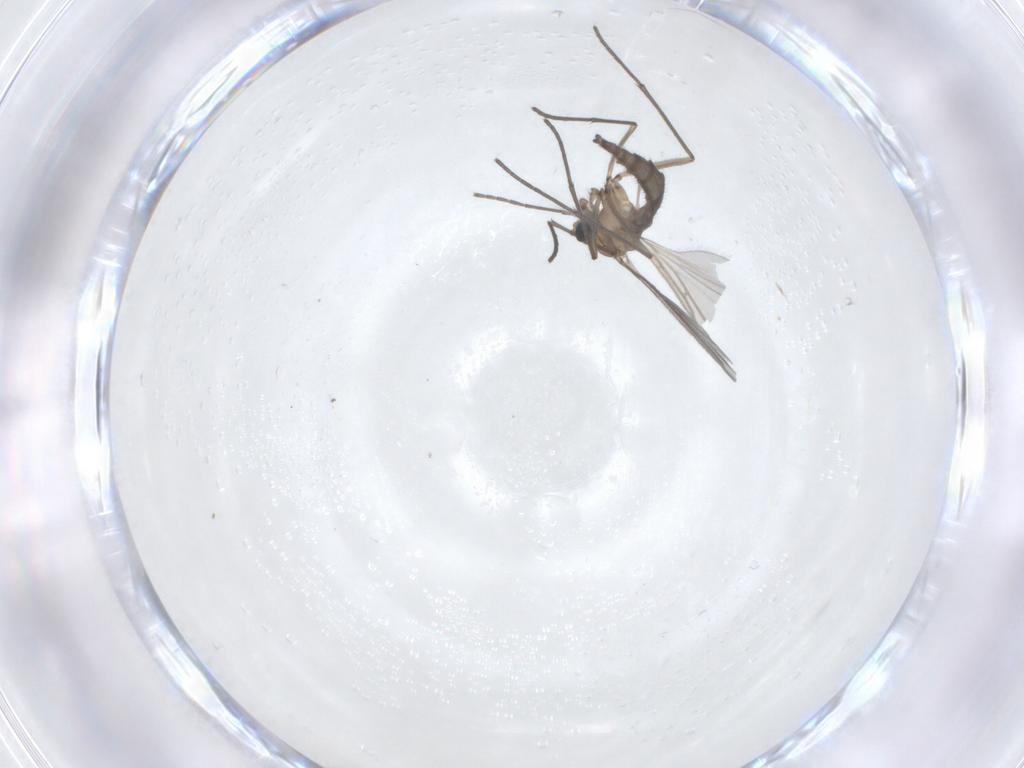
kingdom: Animalia
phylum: Arthropoda
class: Insecta
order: Diptera
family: Sciaridae
